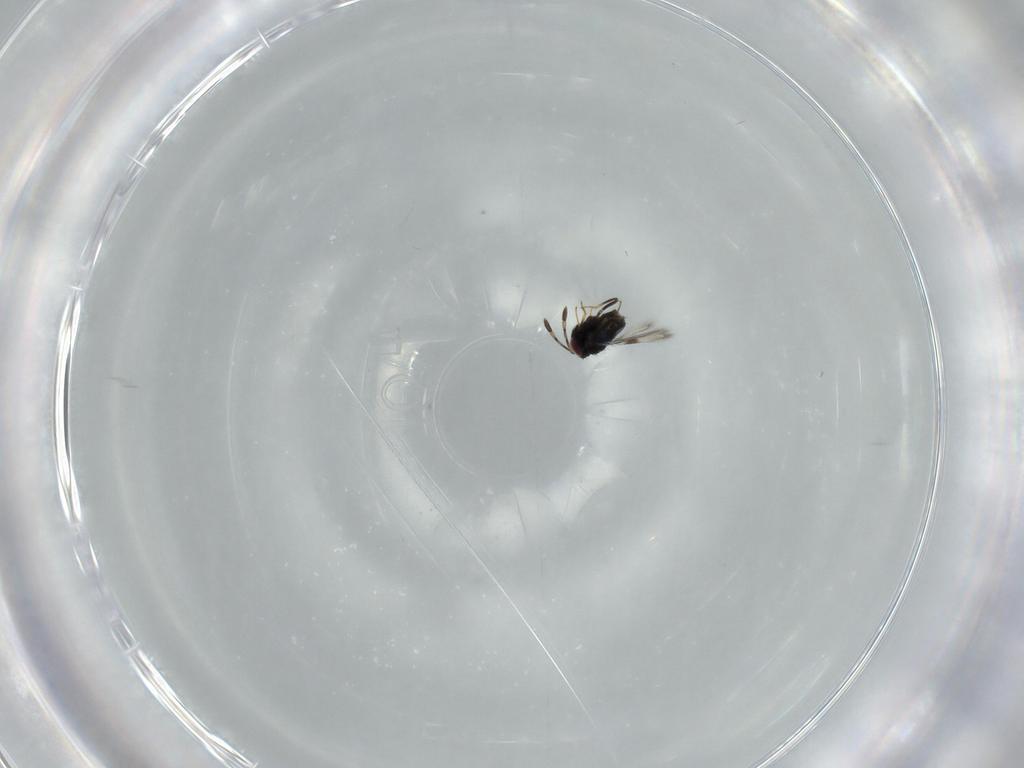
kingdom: Animalia
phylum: Arthropoda
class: Insecta
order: Hymenoptera
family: Azotidae
